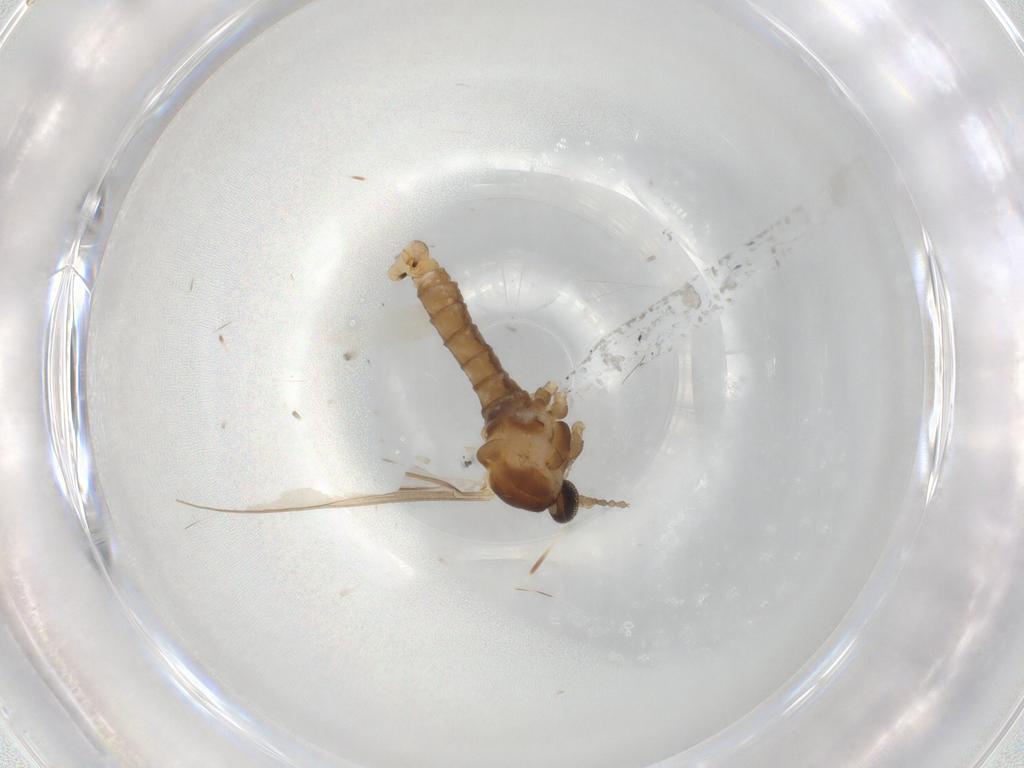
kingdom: Animalia
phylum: Arthropoda
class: Insecta
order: Diptera
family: Cecidomyiidae
